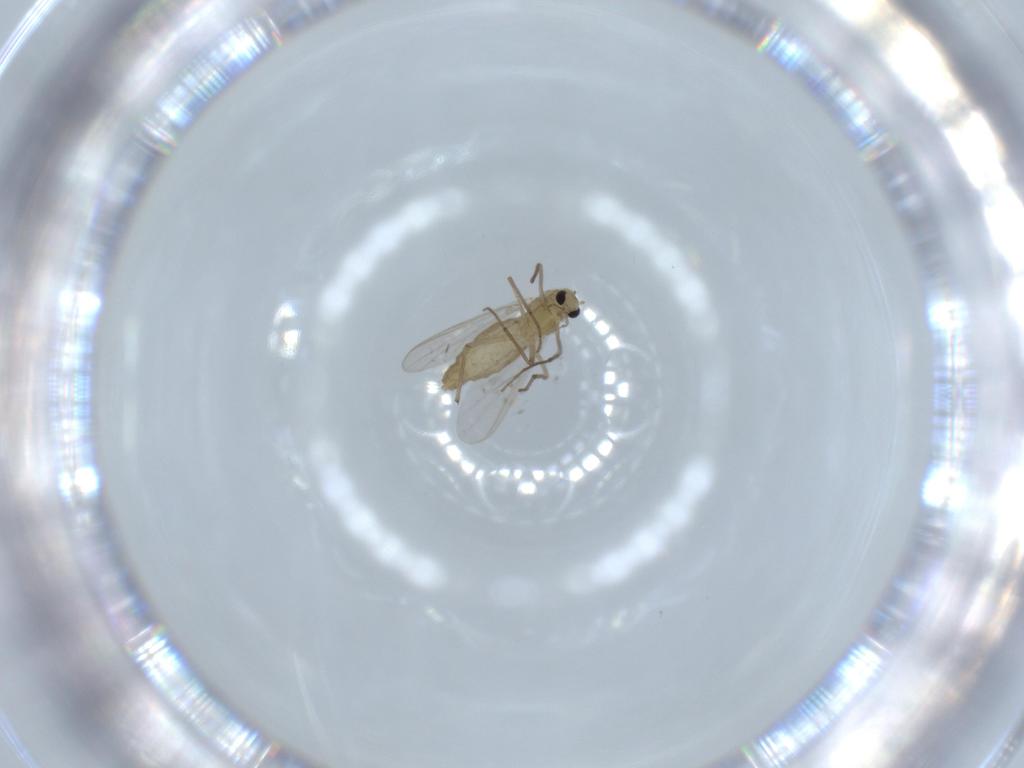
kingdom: Animalia
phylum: Arthropoda
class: Insecta
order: Diptera
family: Chironomidae
